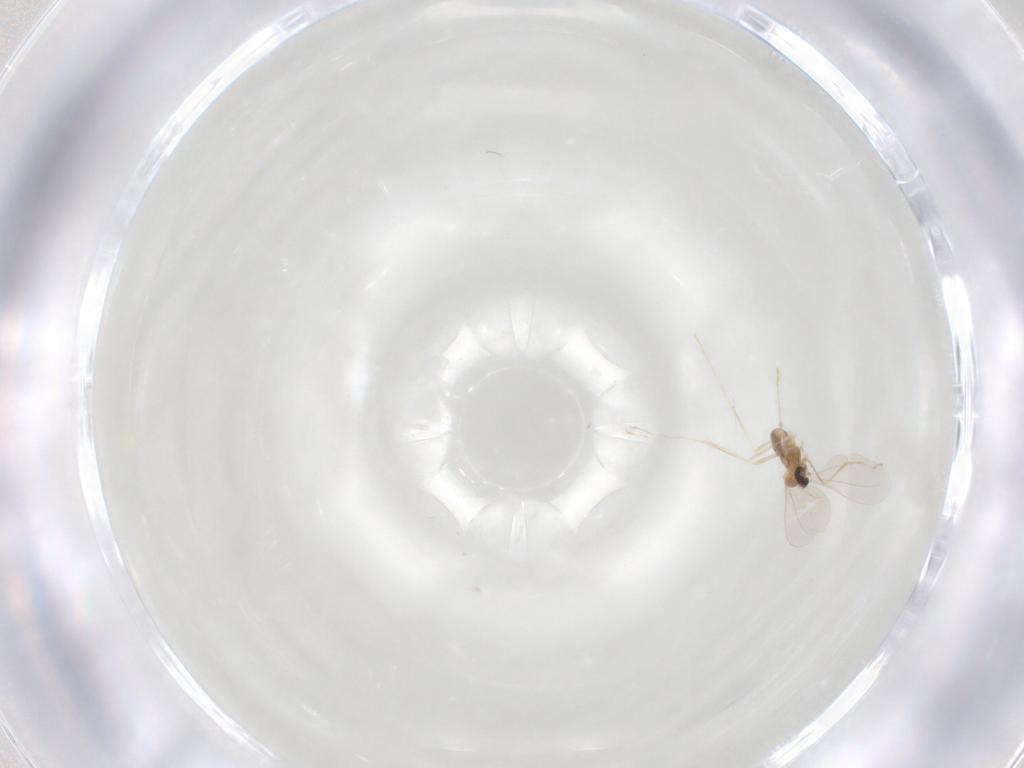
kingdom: Animalia
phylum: Arthropoda
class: Insecta
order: Diptera
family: Cecidomyiidae
